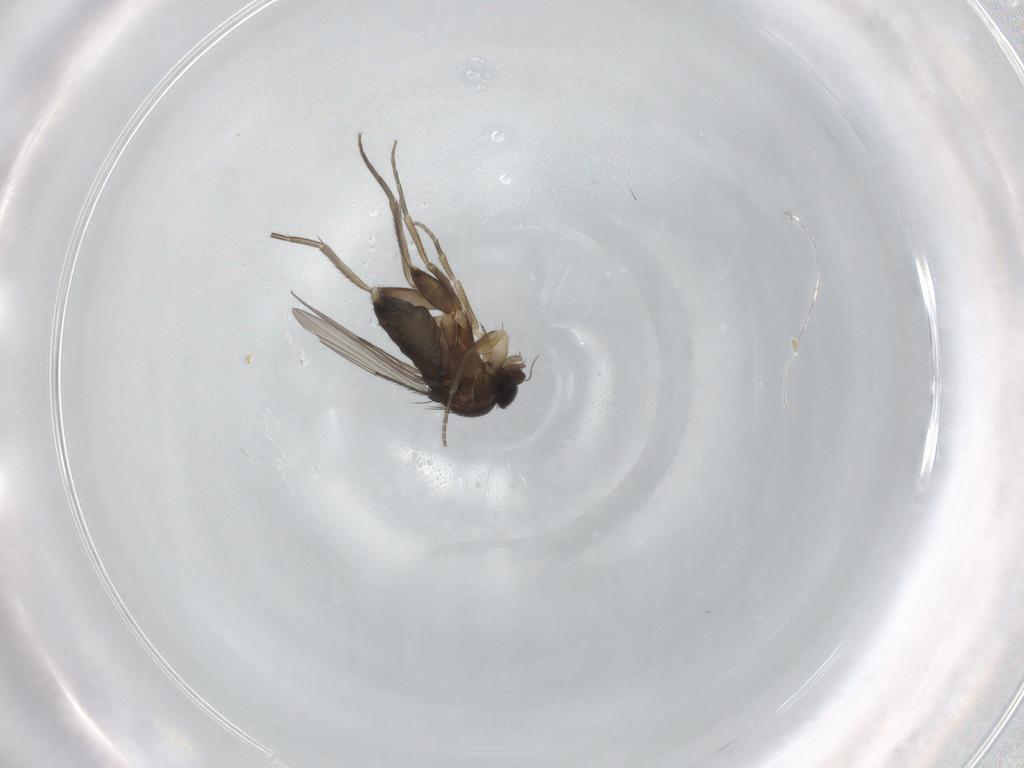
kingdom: Animalia
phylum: Arthropoda
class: Insecta
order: Diptera
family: Phoridae
